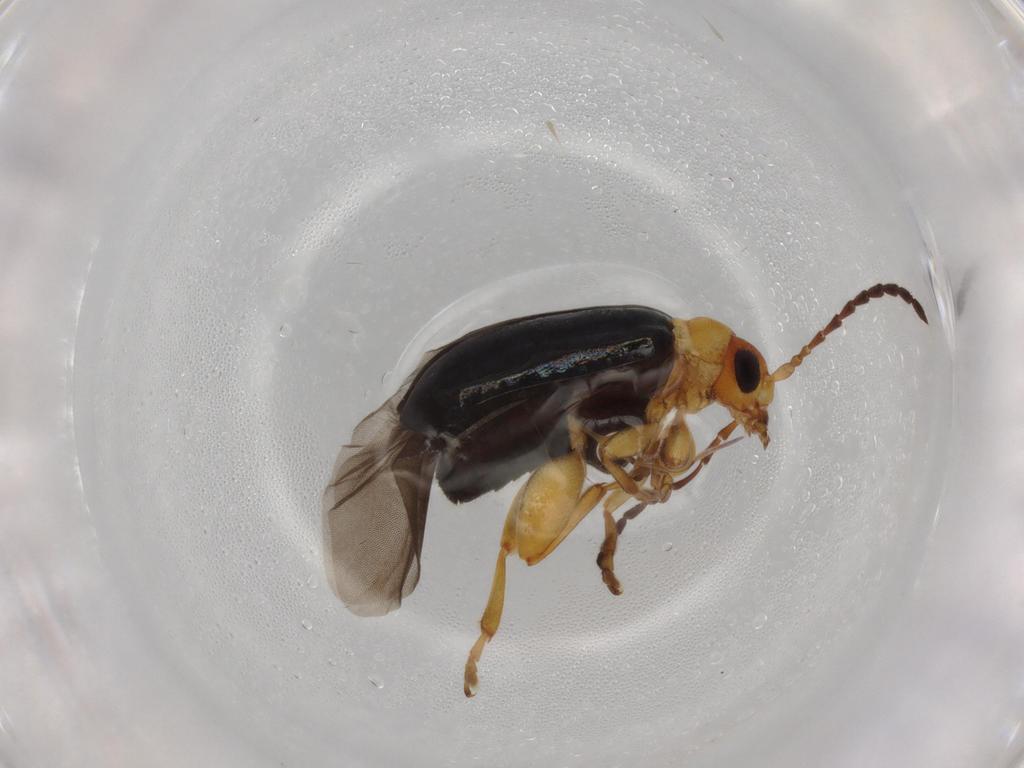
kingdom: Animalia
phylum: Arthropoda
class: Insecta
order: Coleoptera
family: Chrysomelidae
